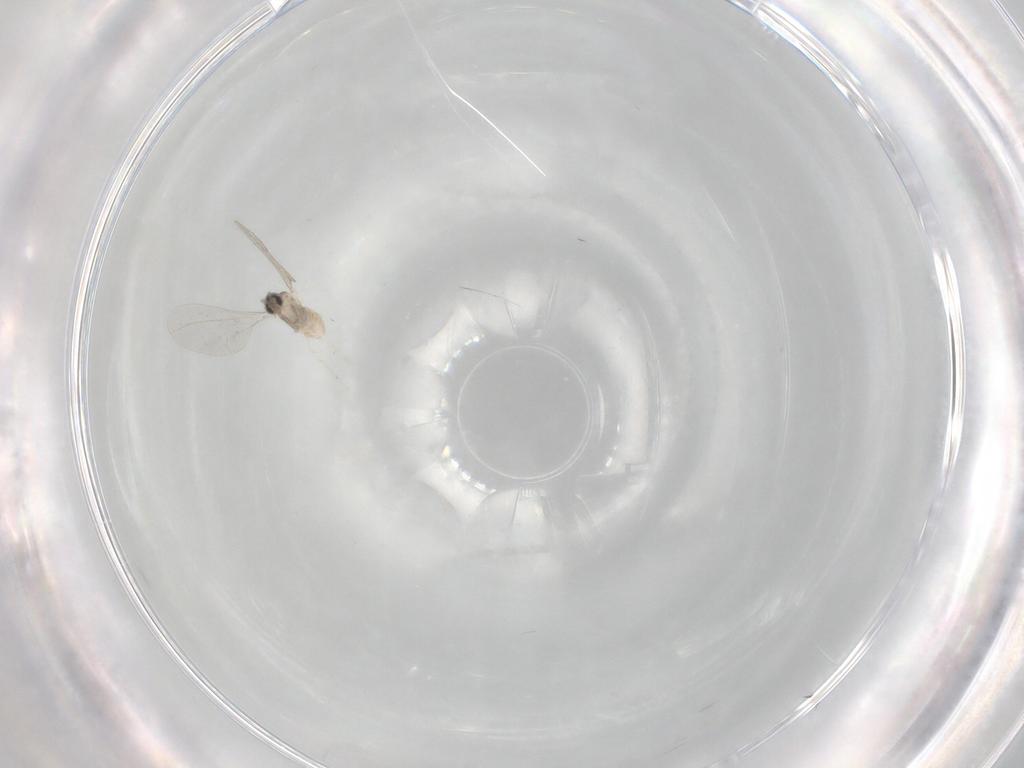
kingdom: Animalia
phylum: Arthropoda
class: Insecta
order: Diptera
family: Cecidomyiidae
